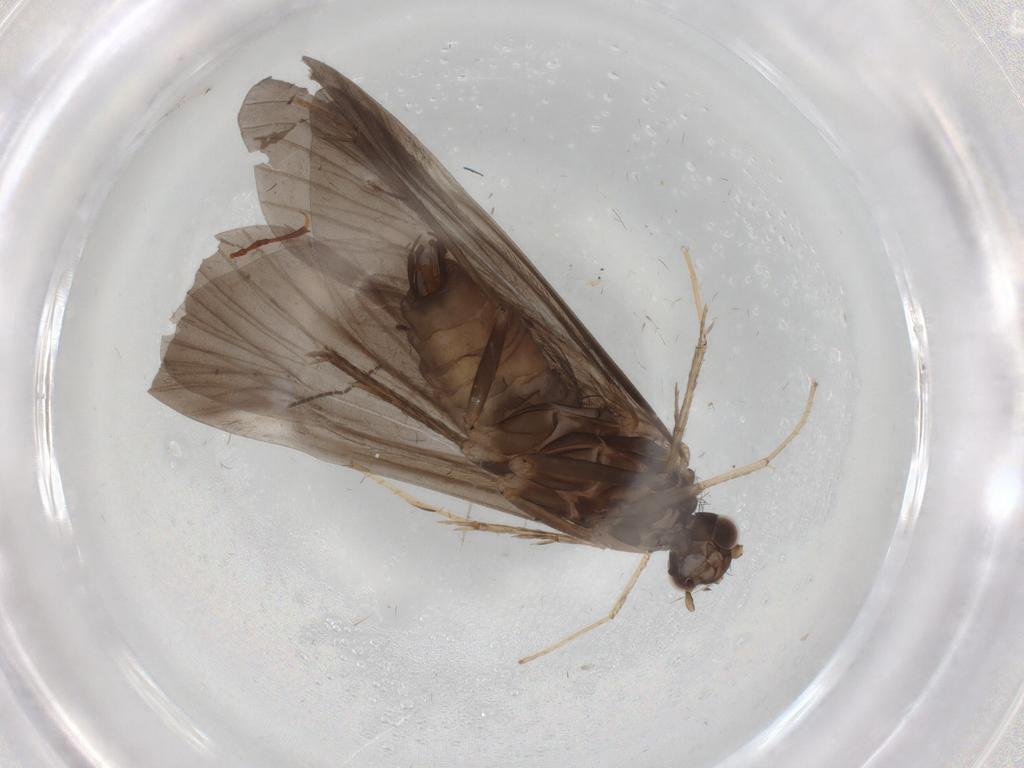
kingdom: Animalia
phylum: Arthropoda
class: Insecta
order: Trichoptera
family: Hydropsychidae
